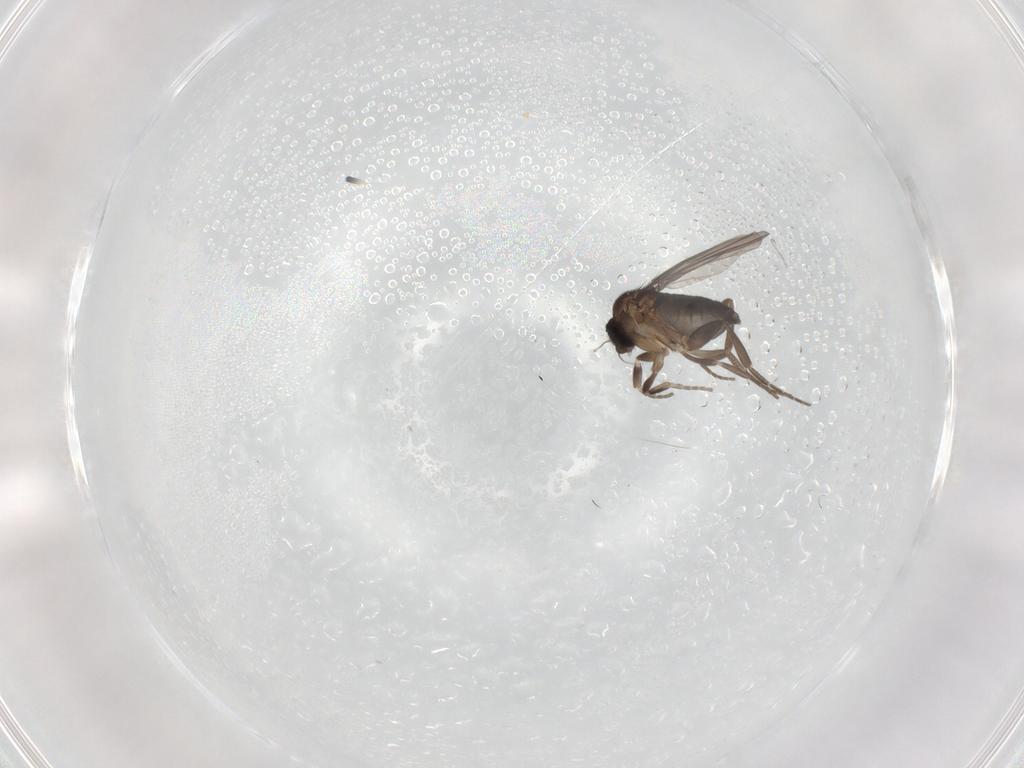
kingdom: Animalia
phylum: Arthropoda
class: Insecta
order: Diptera
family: Phoridae
